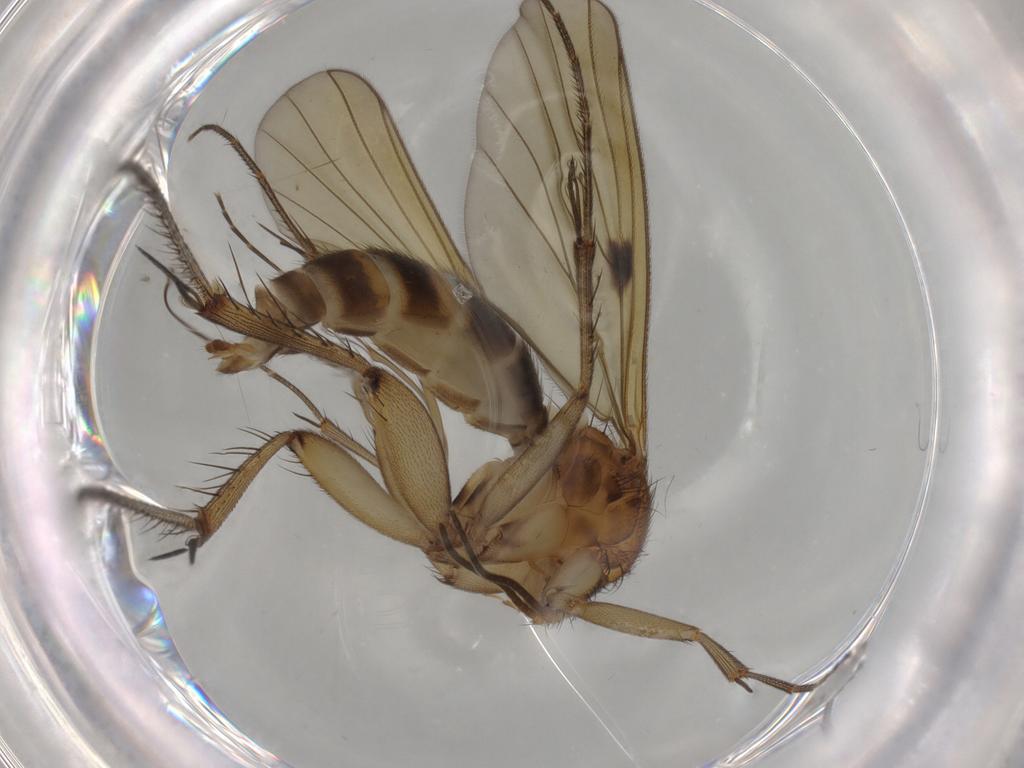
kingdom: Animalia
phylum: Arthropoda
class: Insecta
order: Diptera
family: Mycetophilidae
